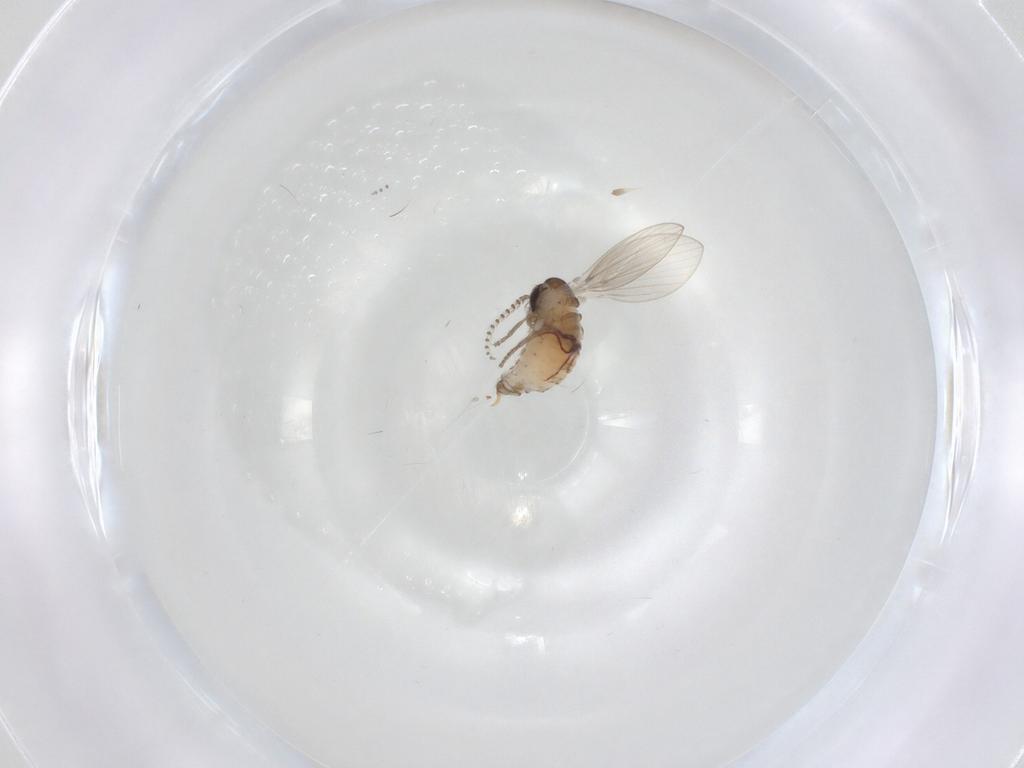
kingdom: Animalia
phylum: Arthropoda
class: Insecta
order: Diptera
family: Psychodidae
